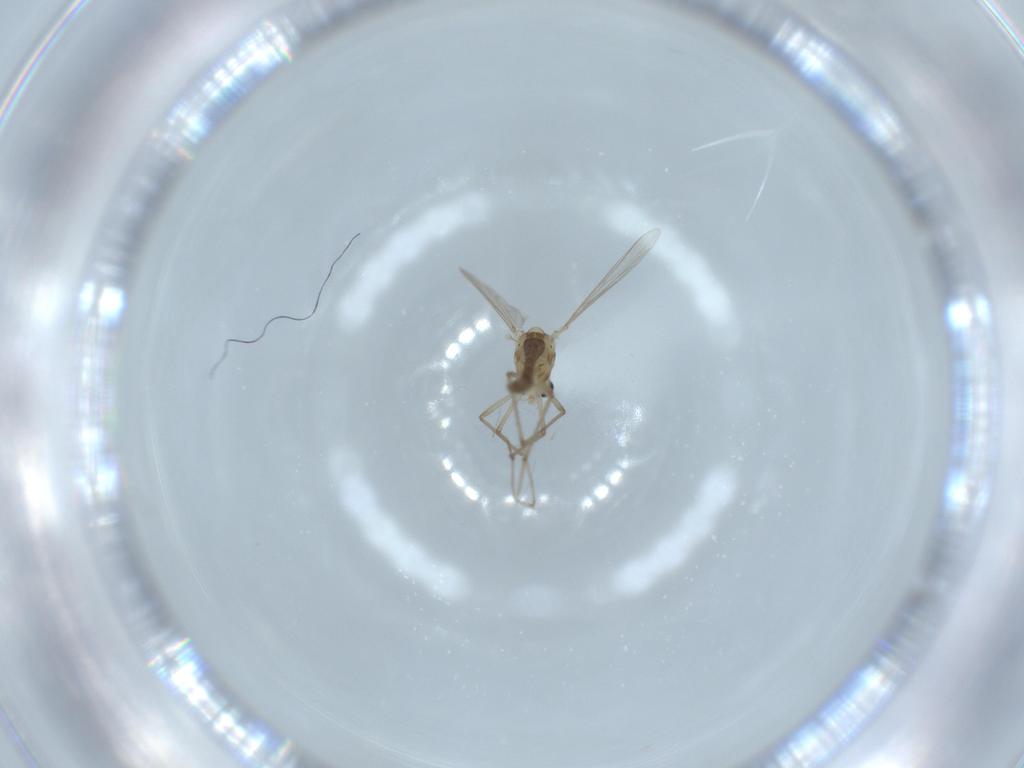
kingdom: Animalia
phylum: Arthropoda
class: Insecta
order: Diptera
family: Chironomidae
